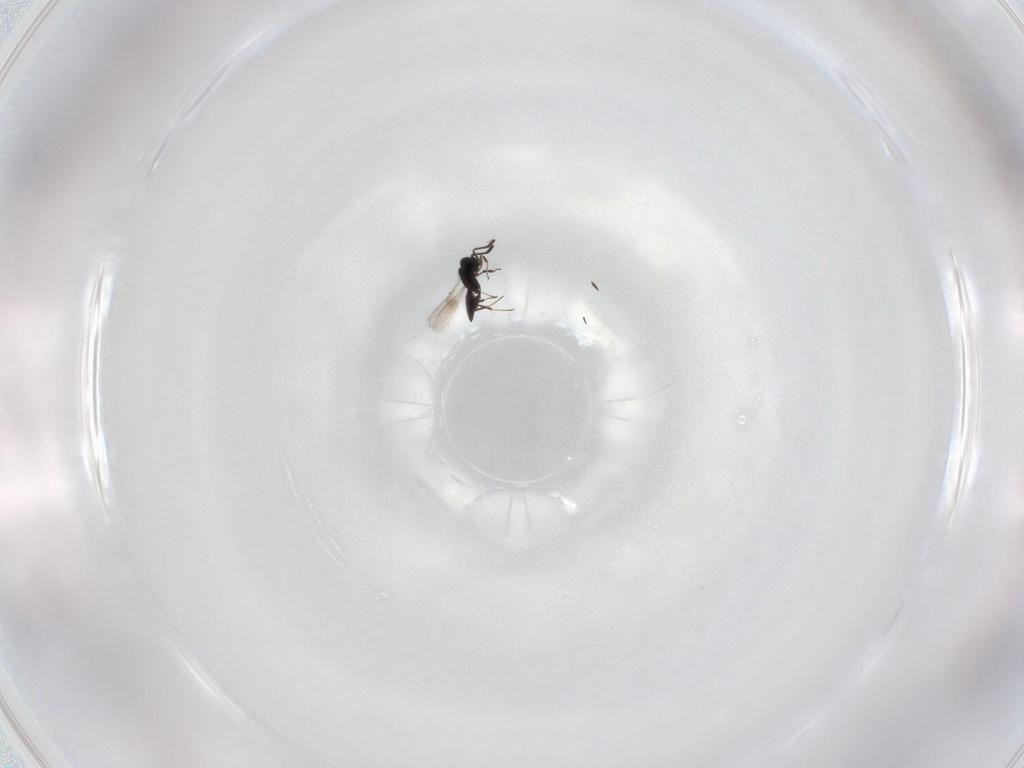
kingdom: Animalia
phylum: Arthropoda
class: Insecta
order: Hymenoptera
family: Scelionidae
